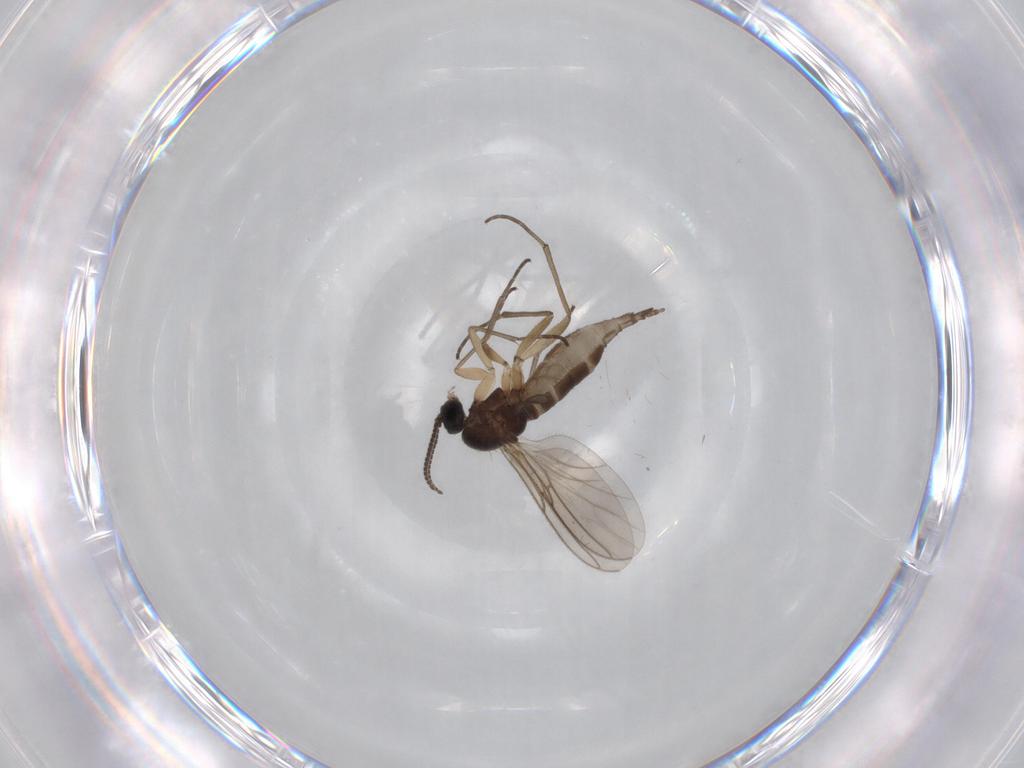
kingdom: Animalia
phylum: Arthropoda
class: Insecta
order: Diptera
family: Sciaridae
